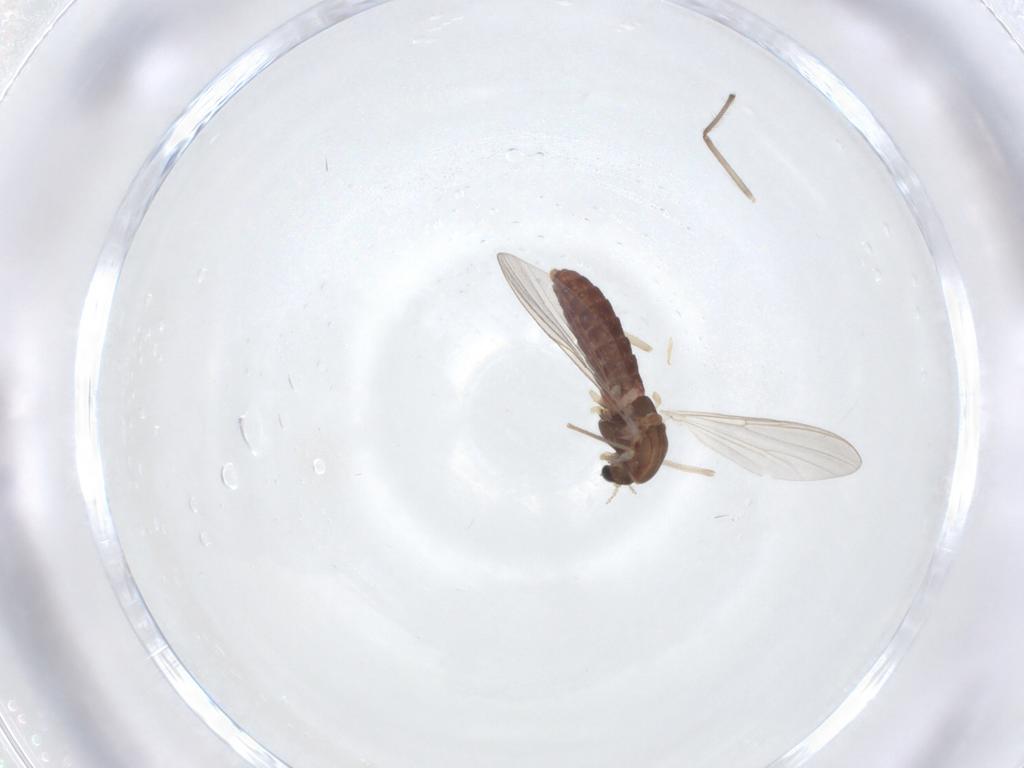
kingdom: Animalia
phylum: Arthropoda
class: Insecta
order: Diptera
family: Chironomidae
